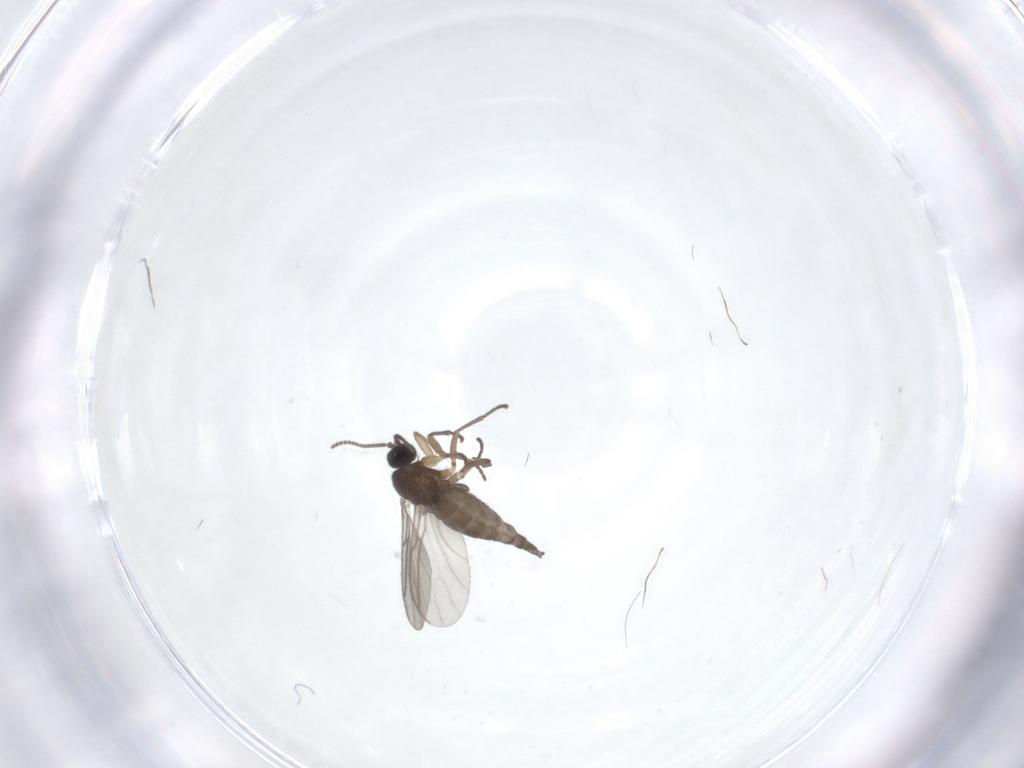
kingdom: Animalia
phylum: Arthropoda
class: Insecta
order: Diptera
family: Sciaridae
